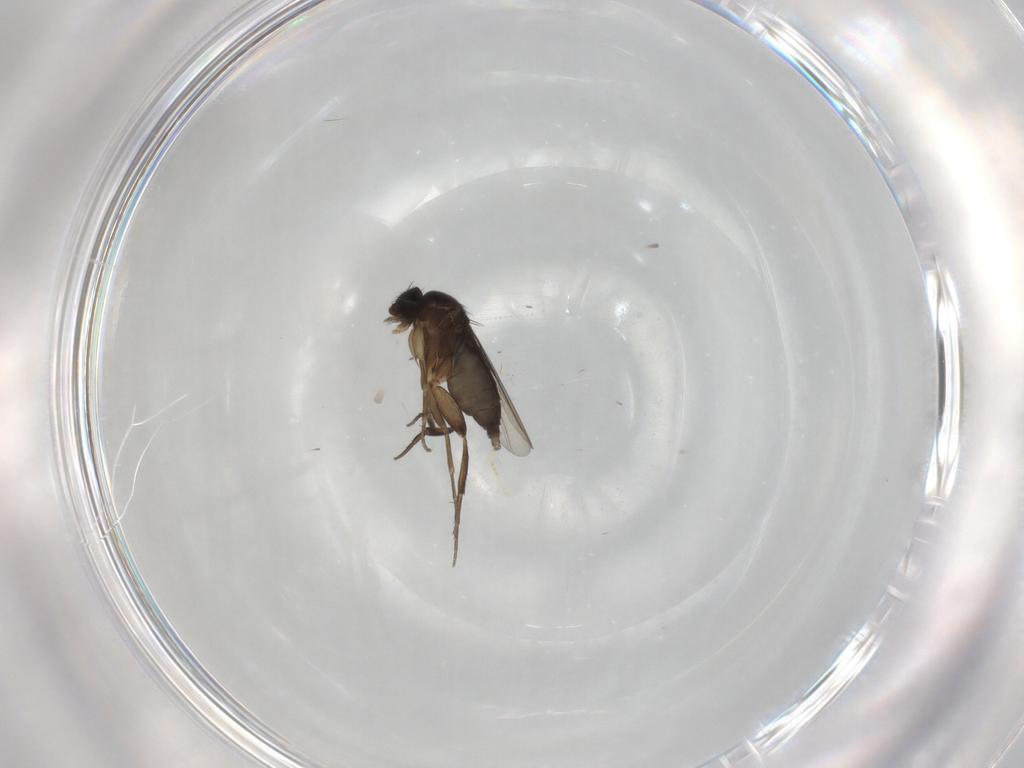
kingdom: Animalia
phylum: Arthropoda
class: Insecta
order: Diptera
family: Phoridae
